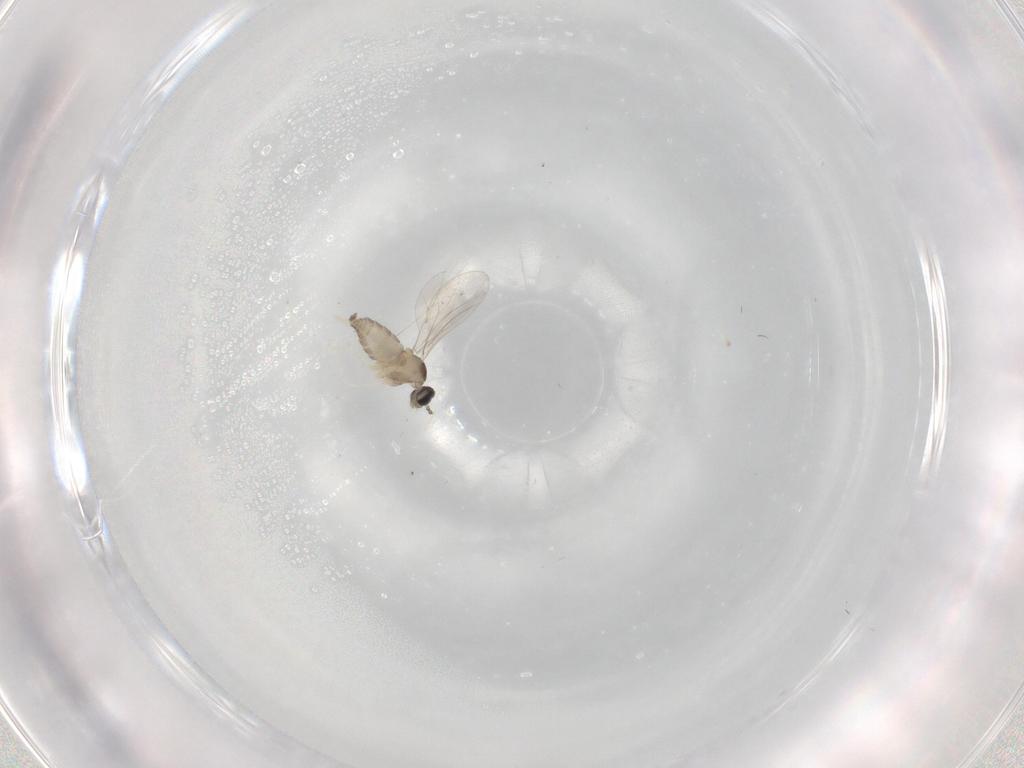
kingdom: Animalia
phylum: Arthropoda
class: Insecta
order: Diptera
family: Cecidomyiidae
